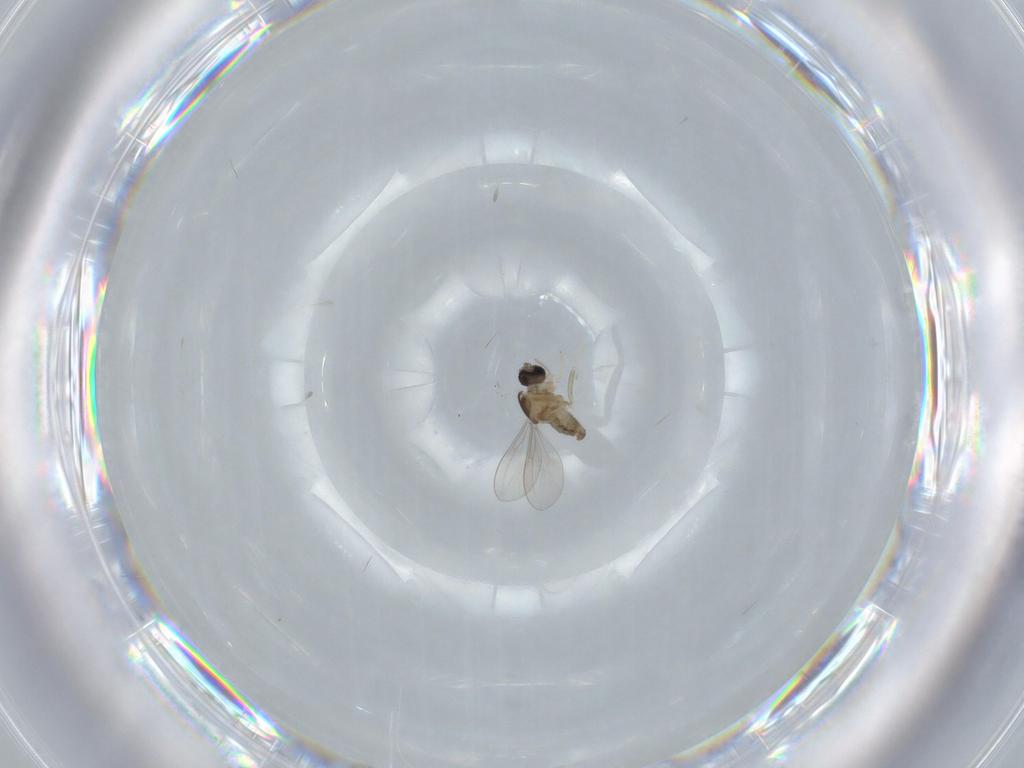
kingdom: Animalia
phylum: Arthropoda
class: Insecta
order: Diptera
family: Cecidomyiidae
